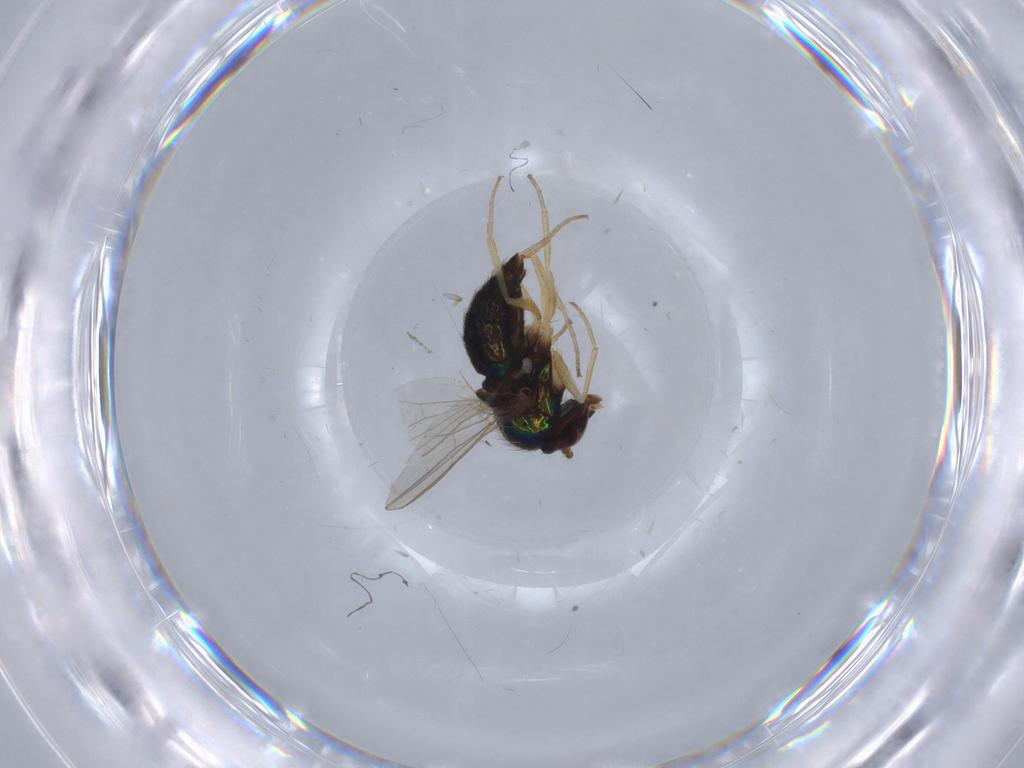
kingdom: Animalia
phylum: Arthropoda
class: Insecta
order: Diptera
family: Dolichopodidae
